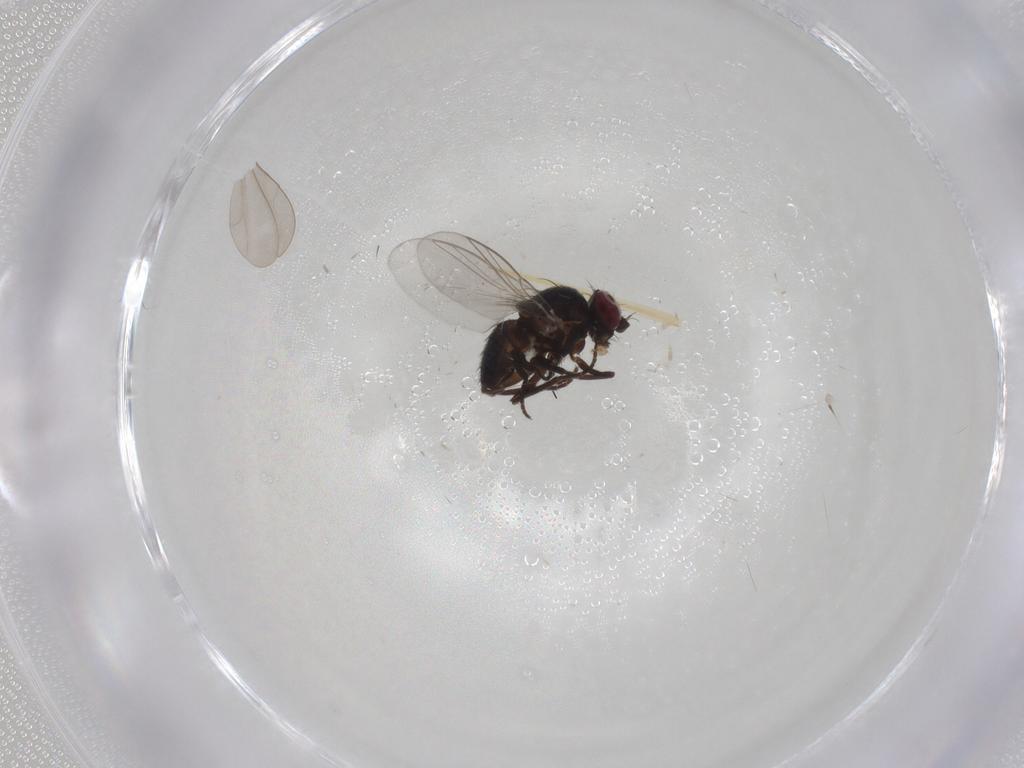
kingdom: Animalia
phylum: Arthropoda
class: Insecta
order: Diptera
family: Agromyzidae
